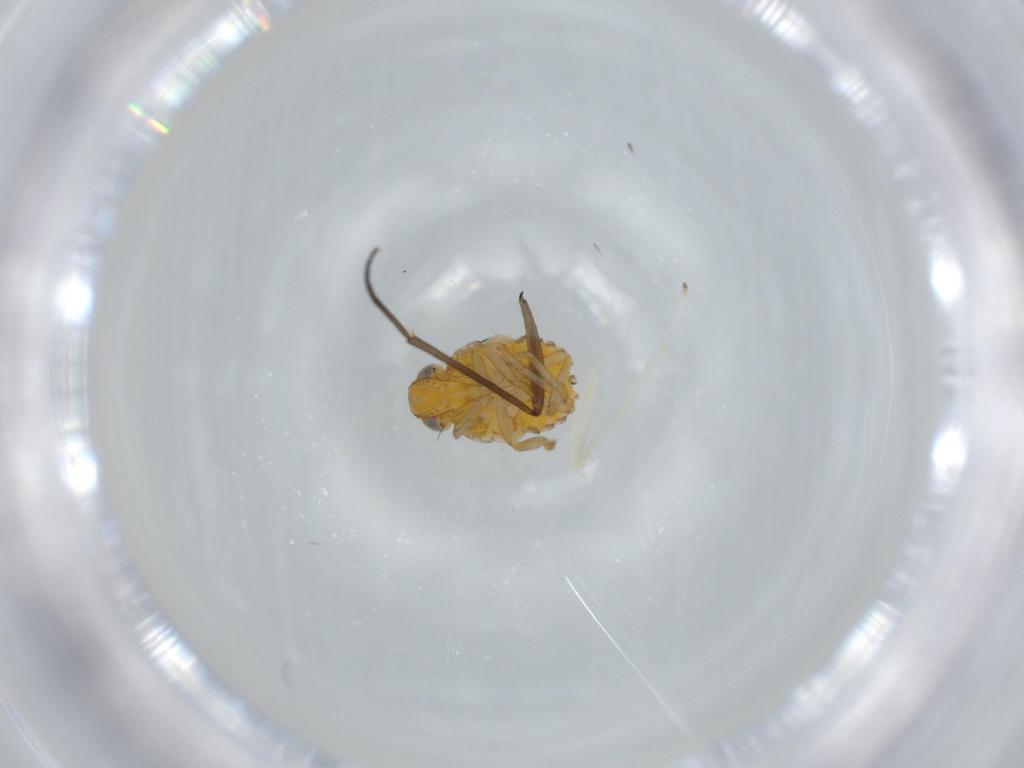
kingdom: Animalia
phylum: Arthropoda
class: Insecta
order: Hemiptera
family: Issidae
